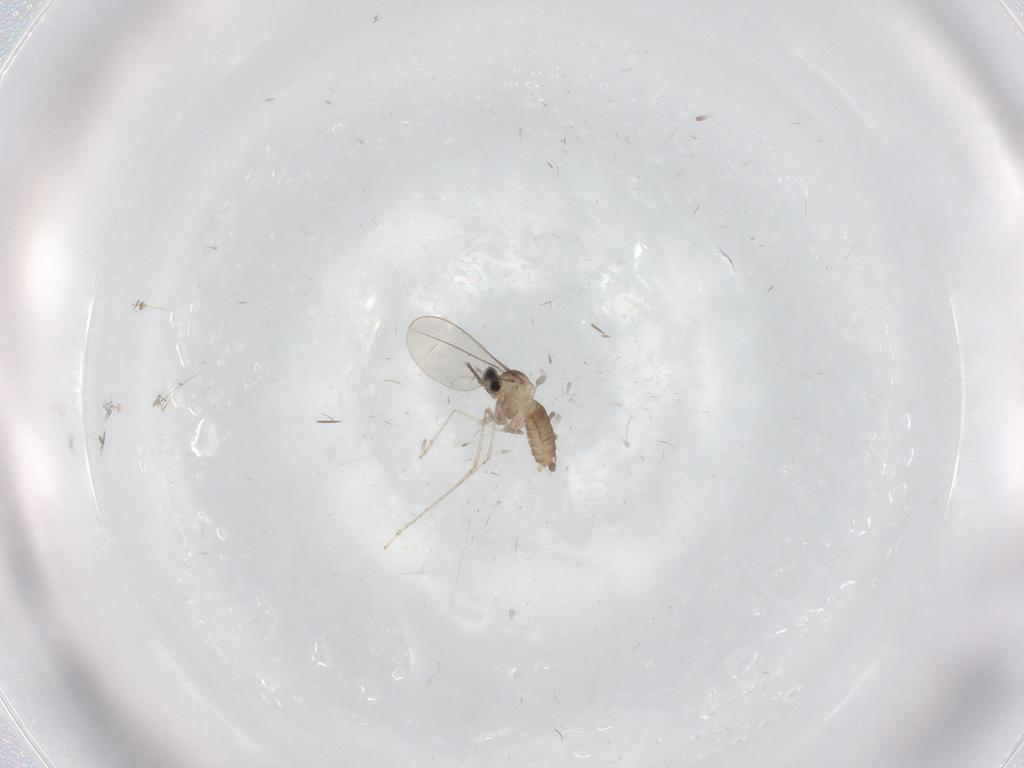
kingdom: Animalia
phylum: Arthropoda
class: Insecta
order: Diptera
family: Cecidomyiidae
